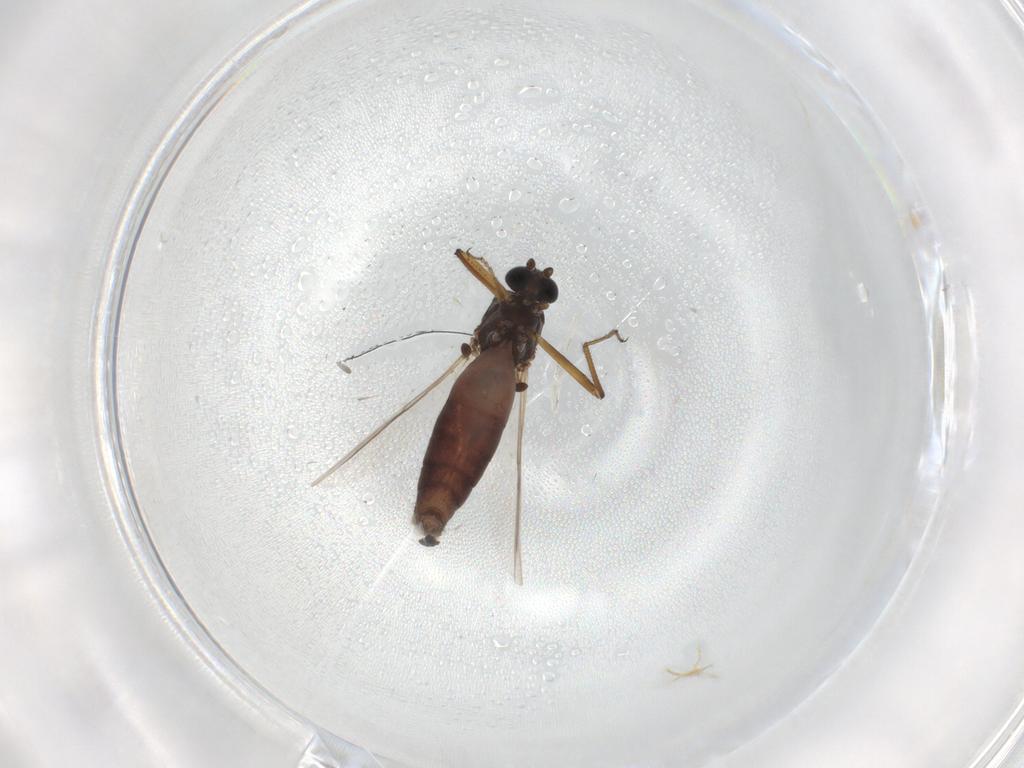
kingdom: Animalia
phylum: Arthropoda
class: Insecta
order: Diptera
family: Ceratopogonidae
